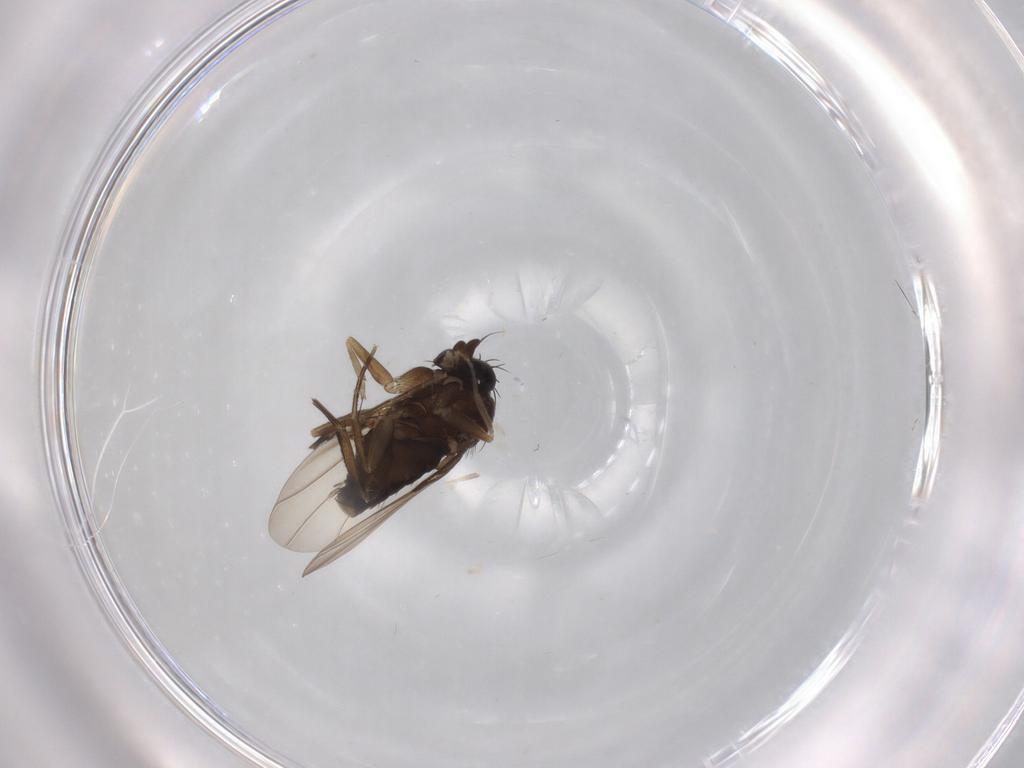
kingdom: Animalia
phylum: Arthropoda
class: Insecta
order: Diptera
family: Phoridae
